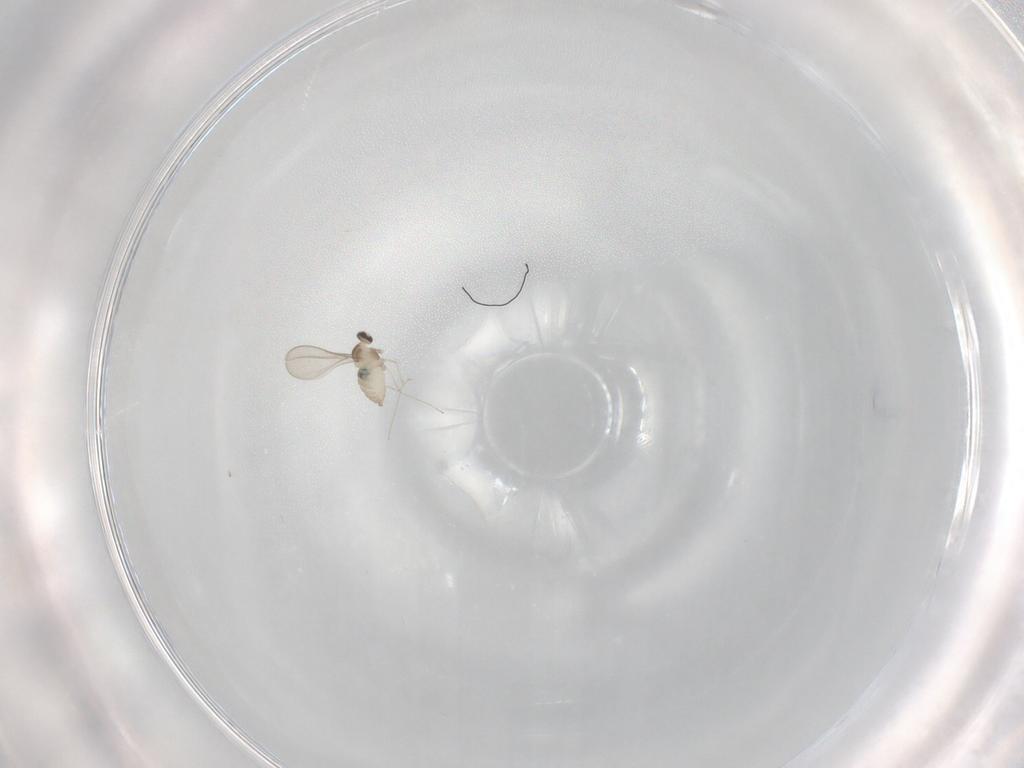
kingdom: Animalia
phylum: Arthropoda
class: Insecta
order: Diptera
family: Cecidomyiidae
